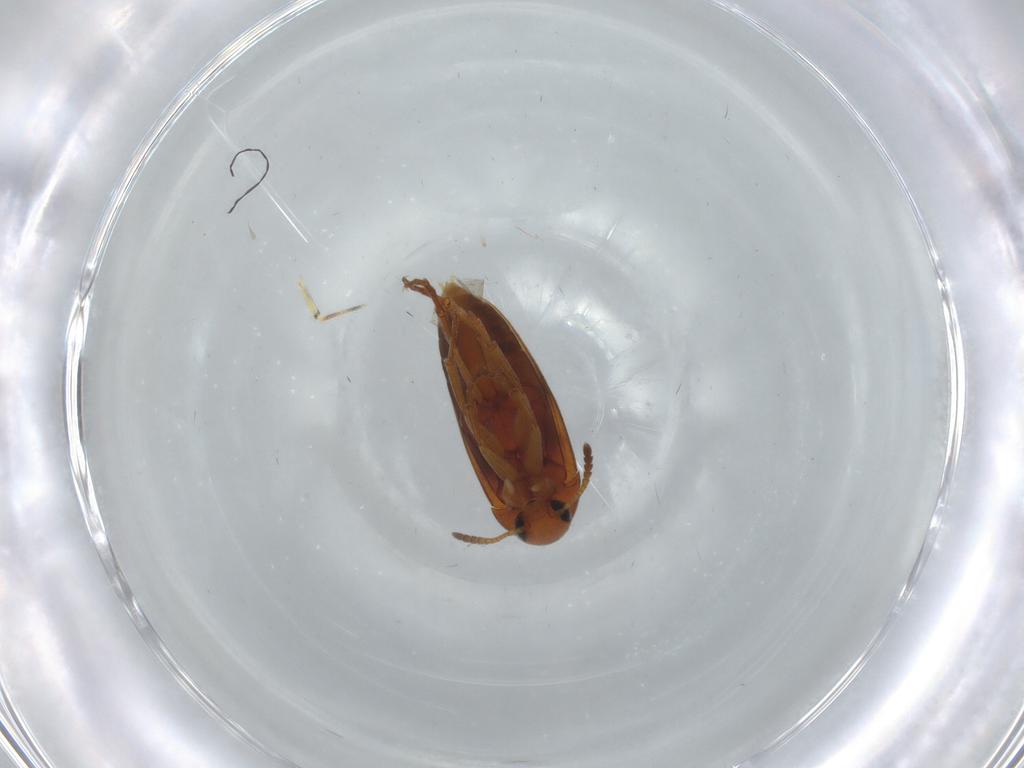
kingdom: Animalia
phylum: Arthropoda
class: Insecta
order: Coleoptera
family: Scraptiidae
